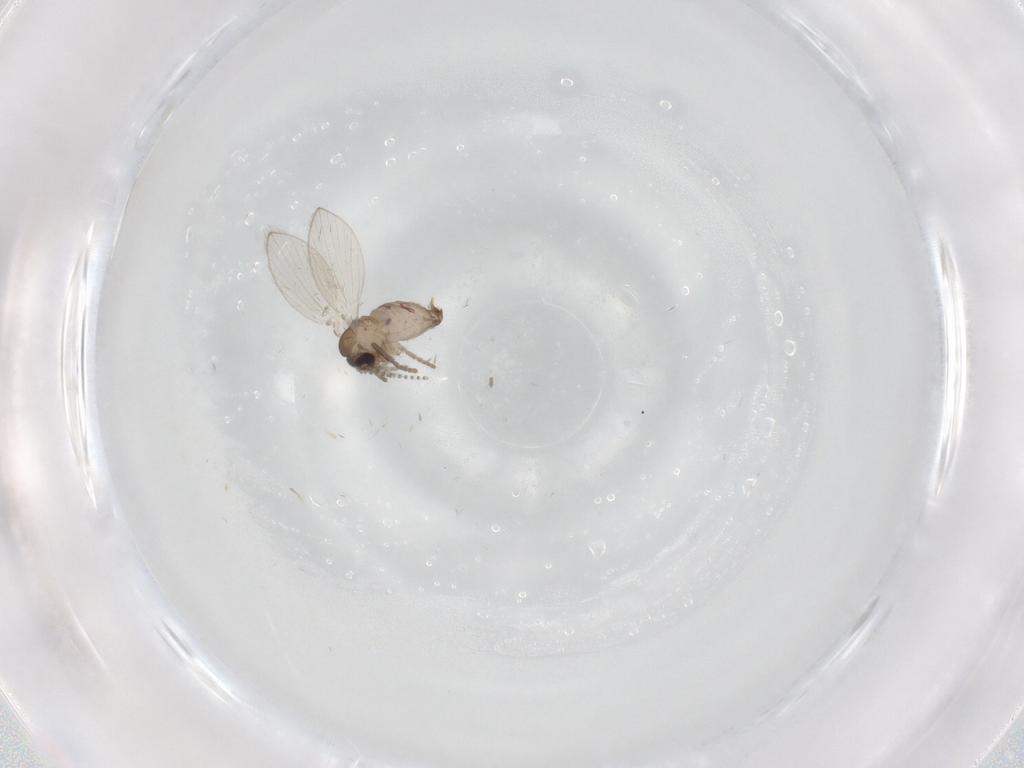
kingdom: Animalia
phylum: Arthropoda
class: Insecta
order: Diptera
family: Psychodidae
